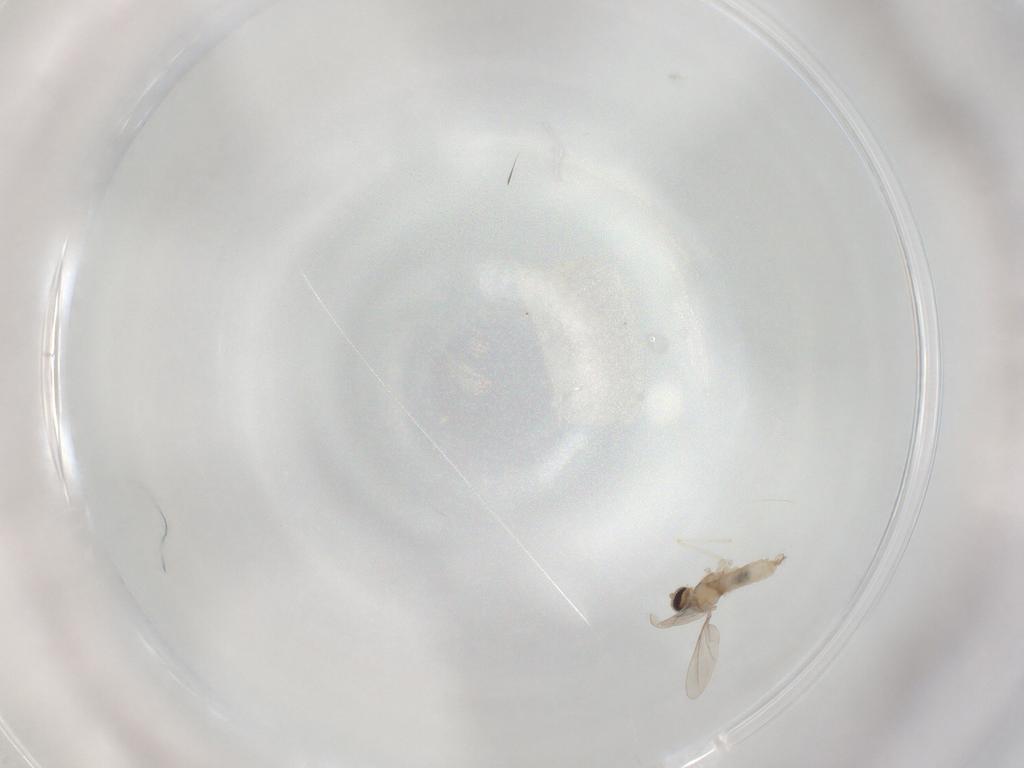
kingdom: Animalia
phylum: Arthropoda
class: Insecta
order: Diptera
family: Cecidomyiidae
